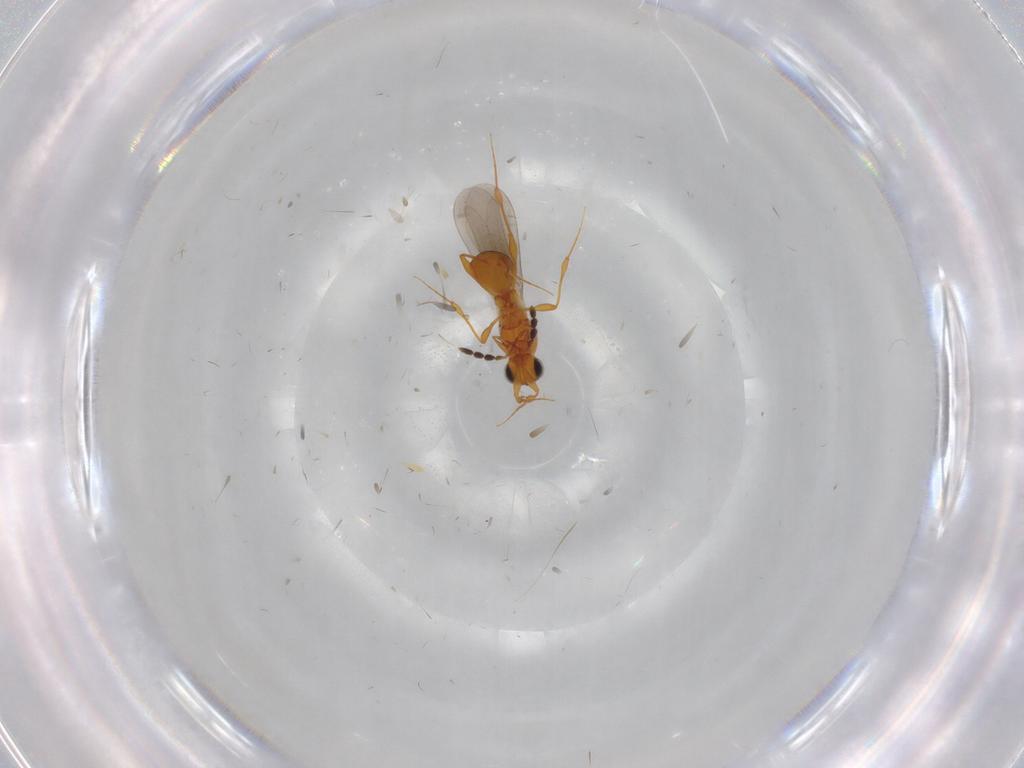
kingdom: Animalia
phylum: Arthropoda
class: Insecta
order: Hymenoptera
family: Platygastridae
